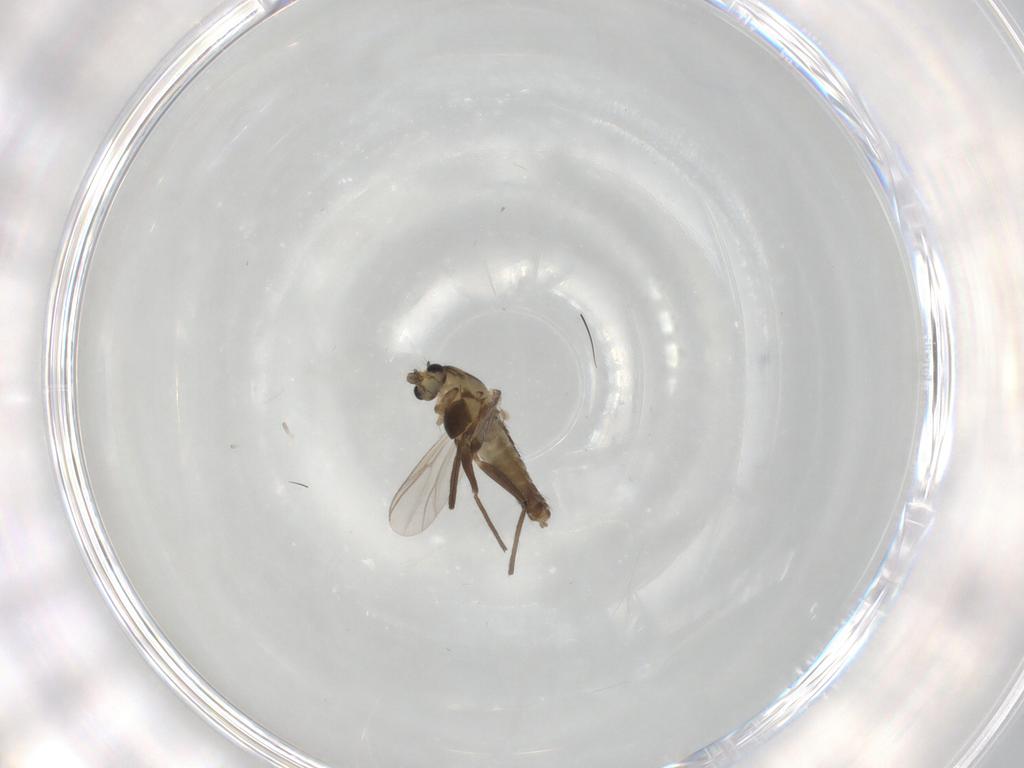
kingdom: Animalia
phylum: Arthropoda
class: Insecta
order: Diptera
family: Chironomidae
